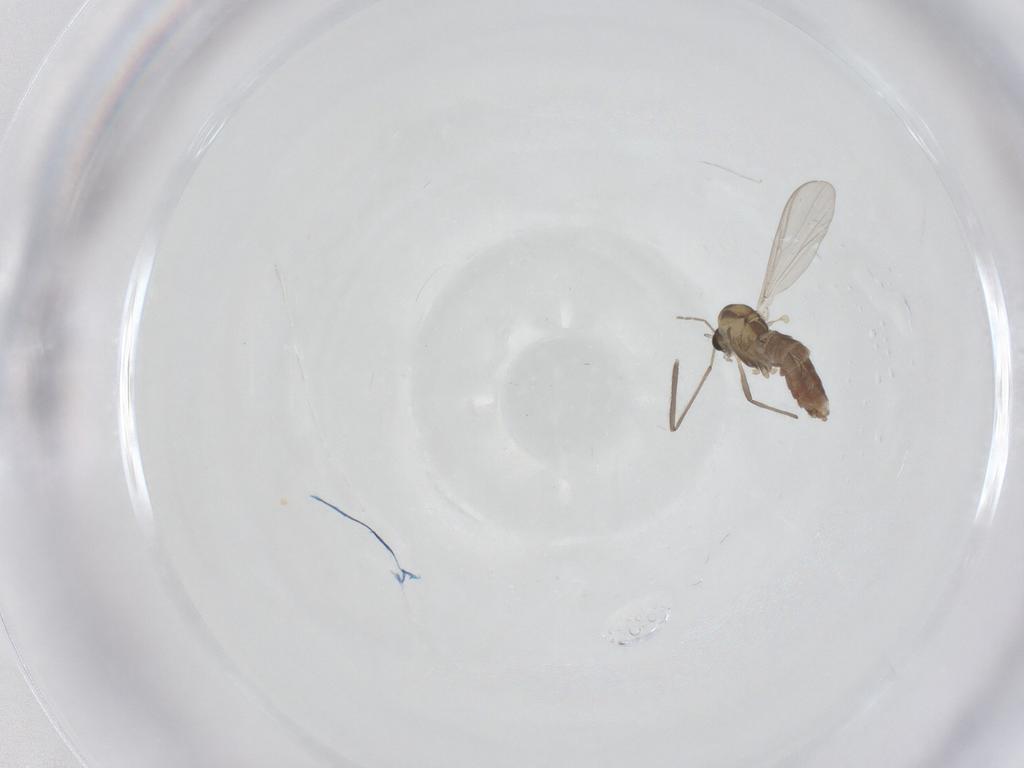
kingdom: Animalia
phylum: Arthropoda
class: Insecta
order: Diptera
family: Chironomidae
